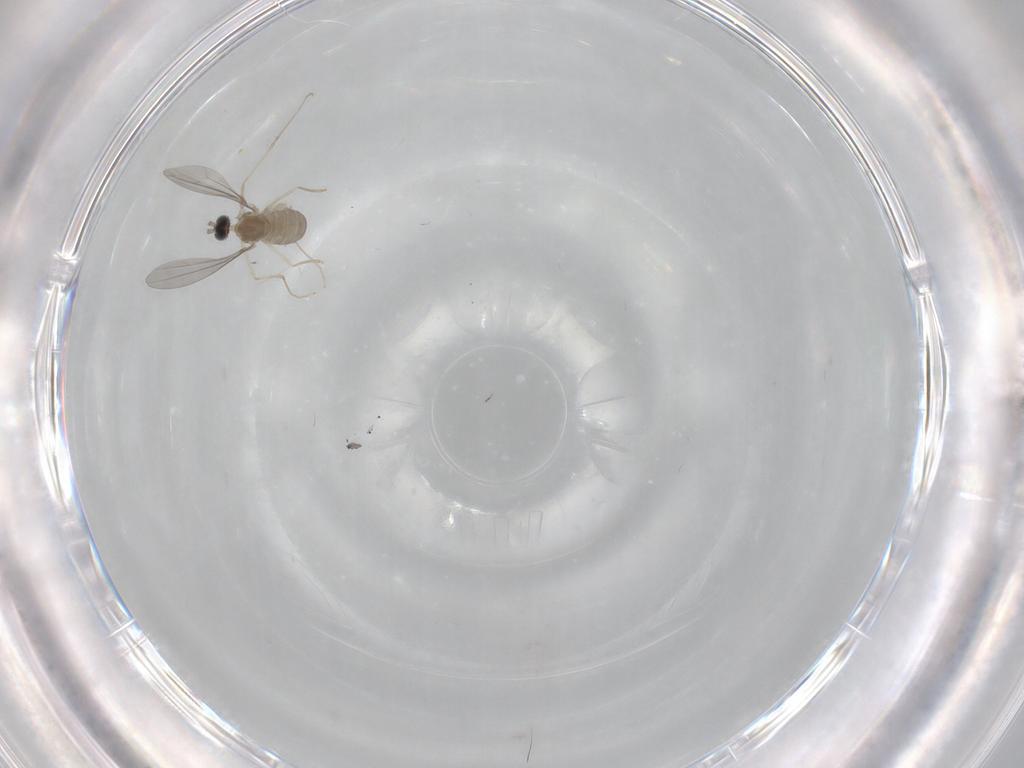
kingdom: Animalia
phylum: Arthropoda
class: Insecta
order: Diptera
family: Cecidomyiidae
